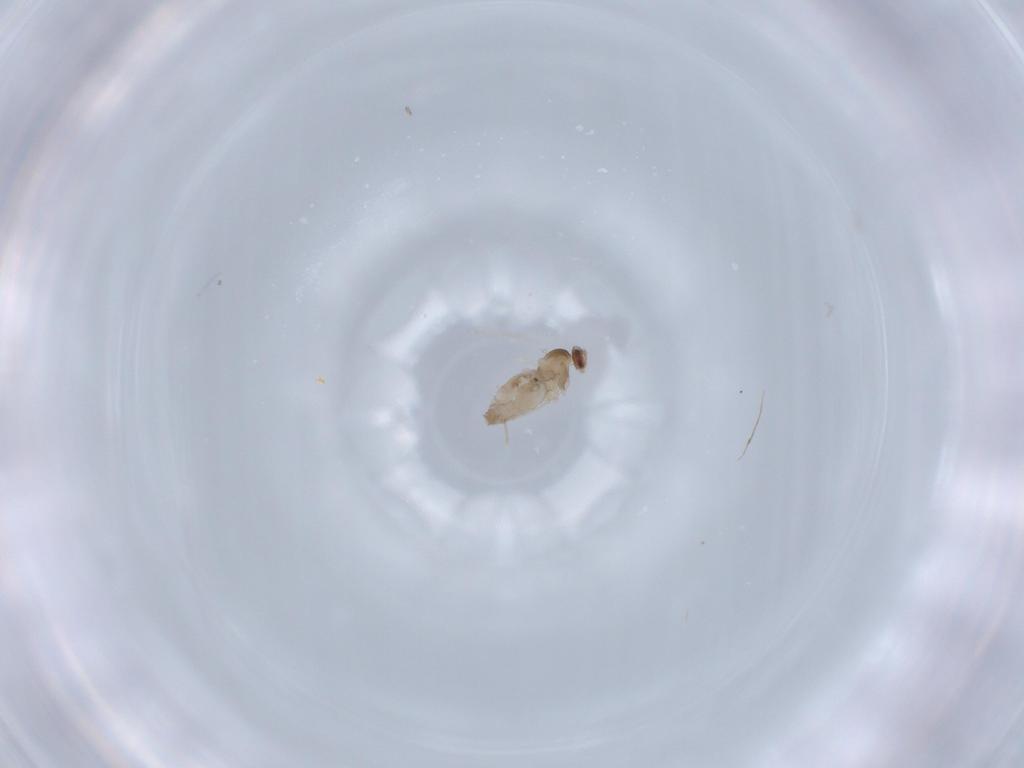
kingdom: Animalia
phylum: Arthropoda
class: Insecta
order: Diptera
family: Cecidomyiidae
